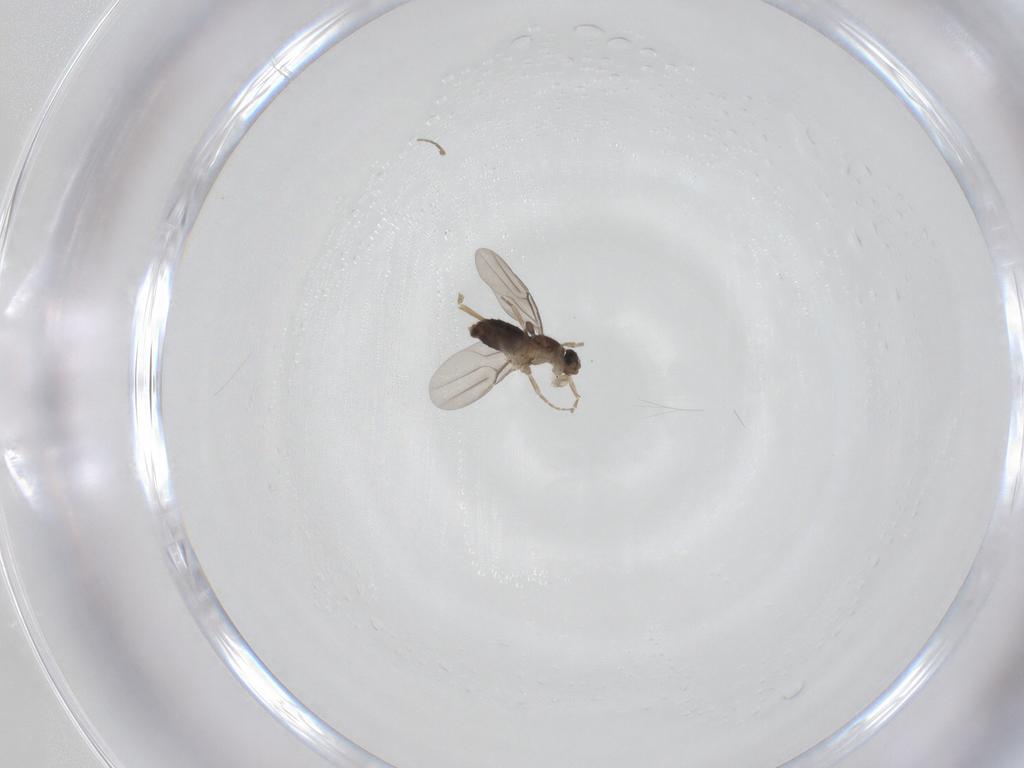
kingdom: Animalia
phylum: Arthropoda
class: Insecta
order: Diptera
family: Phoridae
